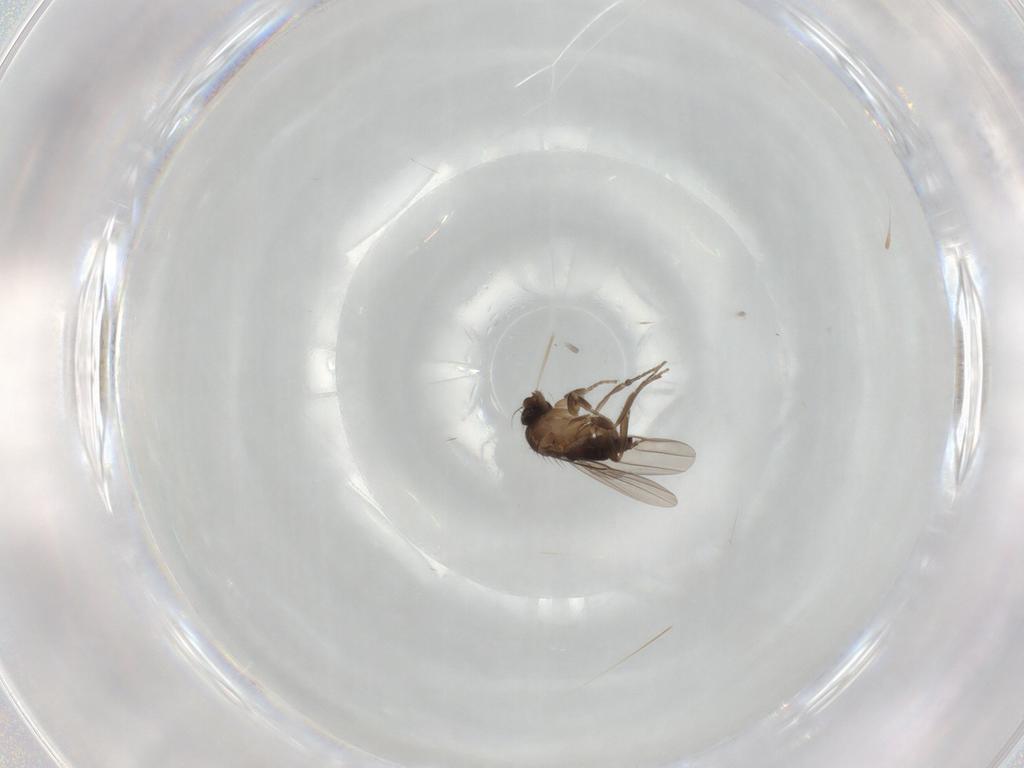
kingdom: Animalia
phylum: Arthropoda
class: Insecta
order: Diptera
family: Phoridae
